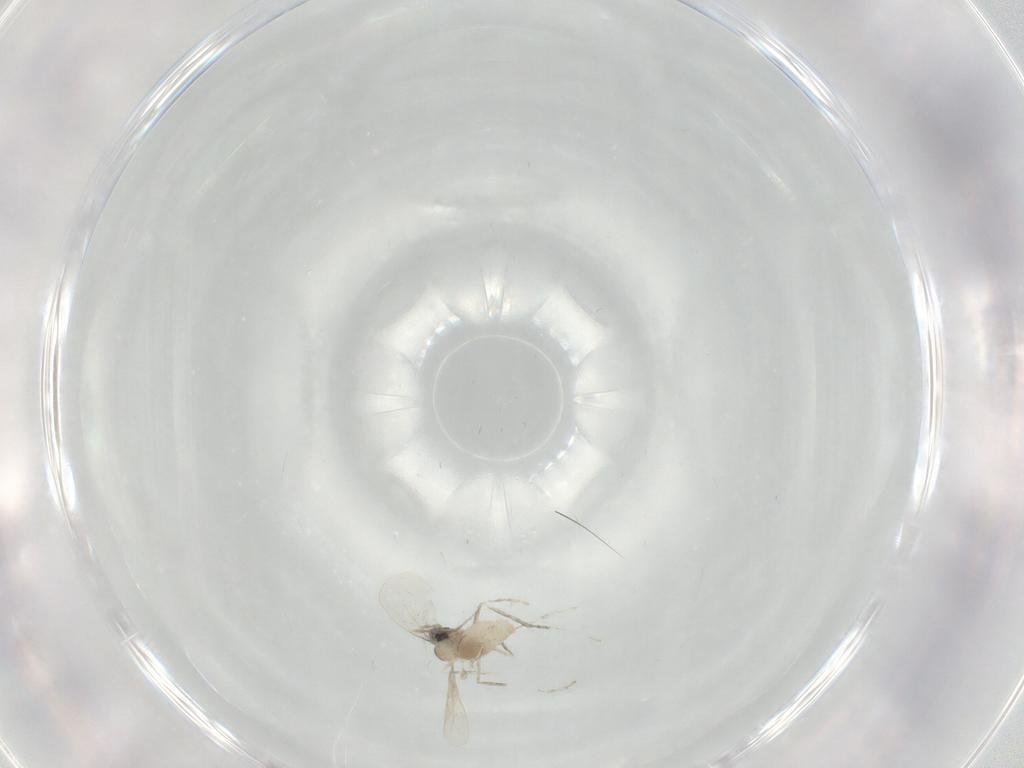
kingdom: Animalia
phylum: Arthropoda
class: Insecta
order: Diptera
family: Cecidomyiidae
